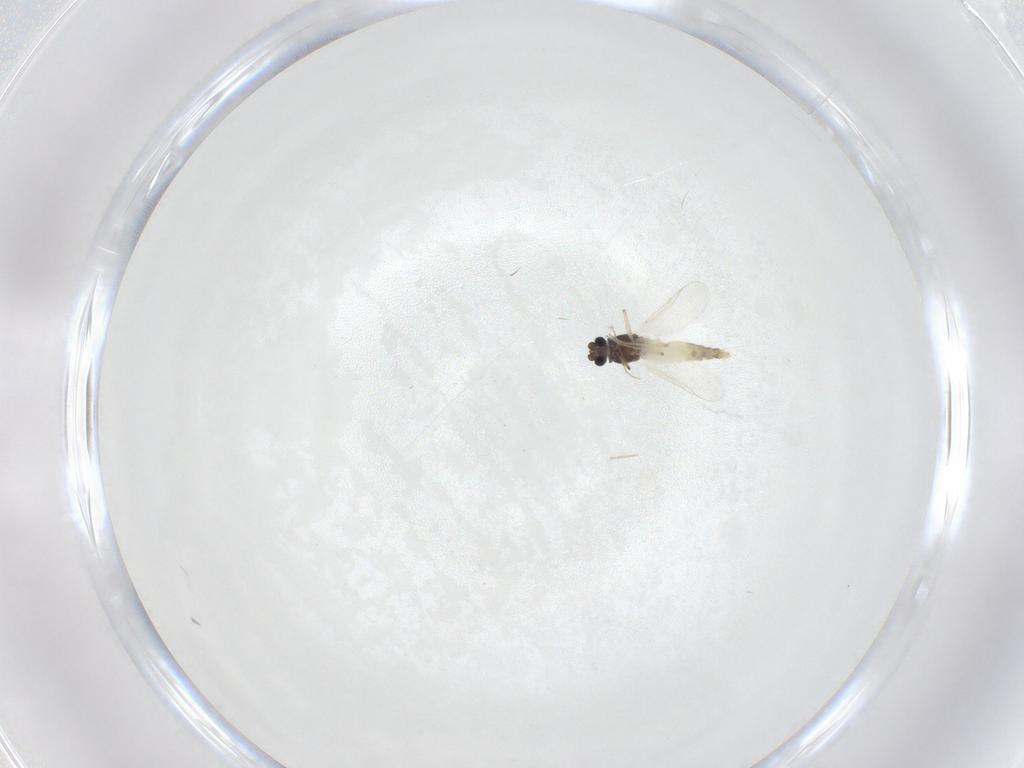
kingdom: Animalia
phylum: Arthropoda
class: Insecta
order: Diptera
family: Chironomidae
